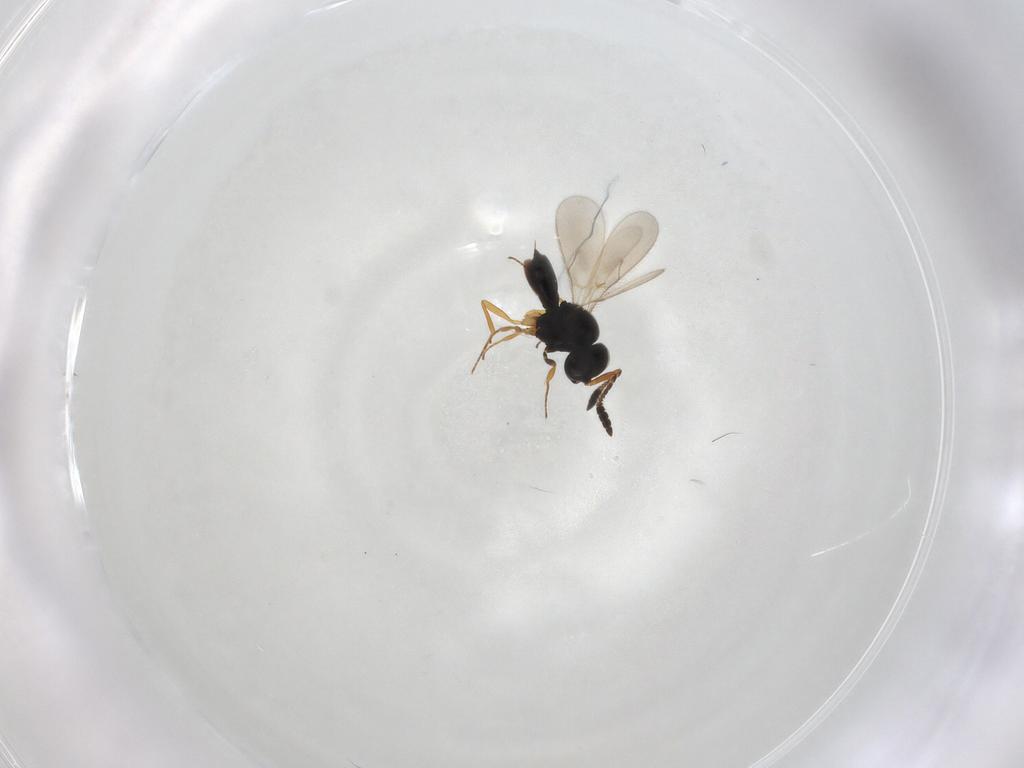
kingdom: Animalia
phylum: Arthropoda
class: Insecta
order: Hymenoptera
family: Scelionidae
